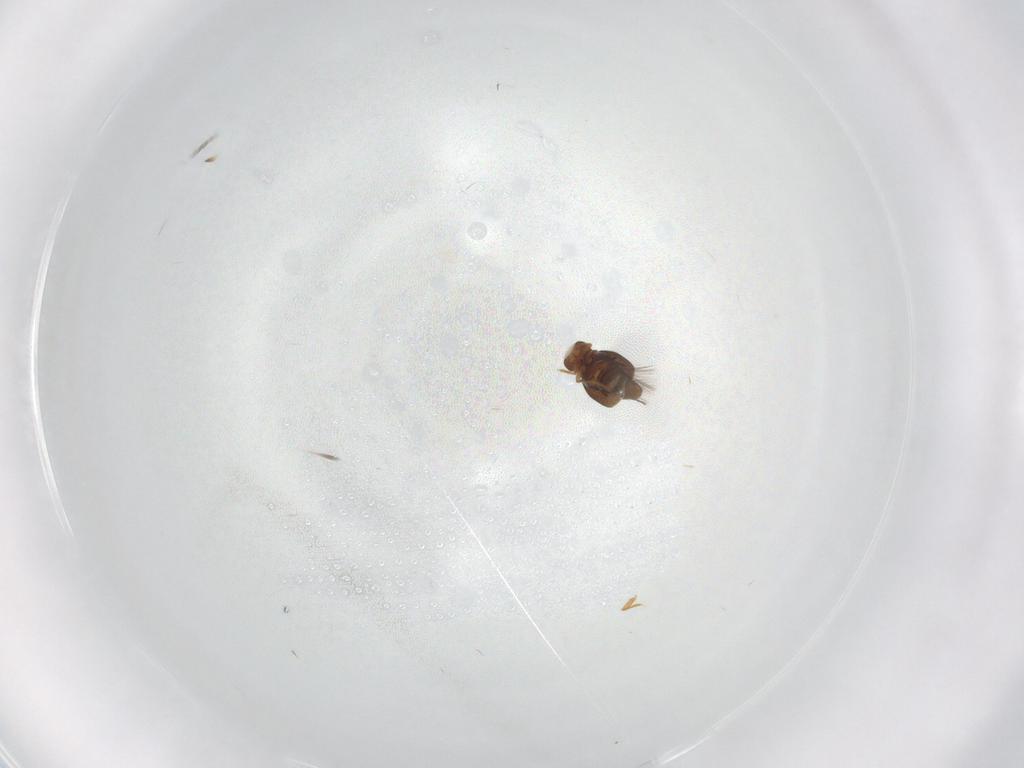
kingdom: Animalia
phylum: Arthropoda
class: Insecta
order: Coleoptera
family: Ptiliidae
